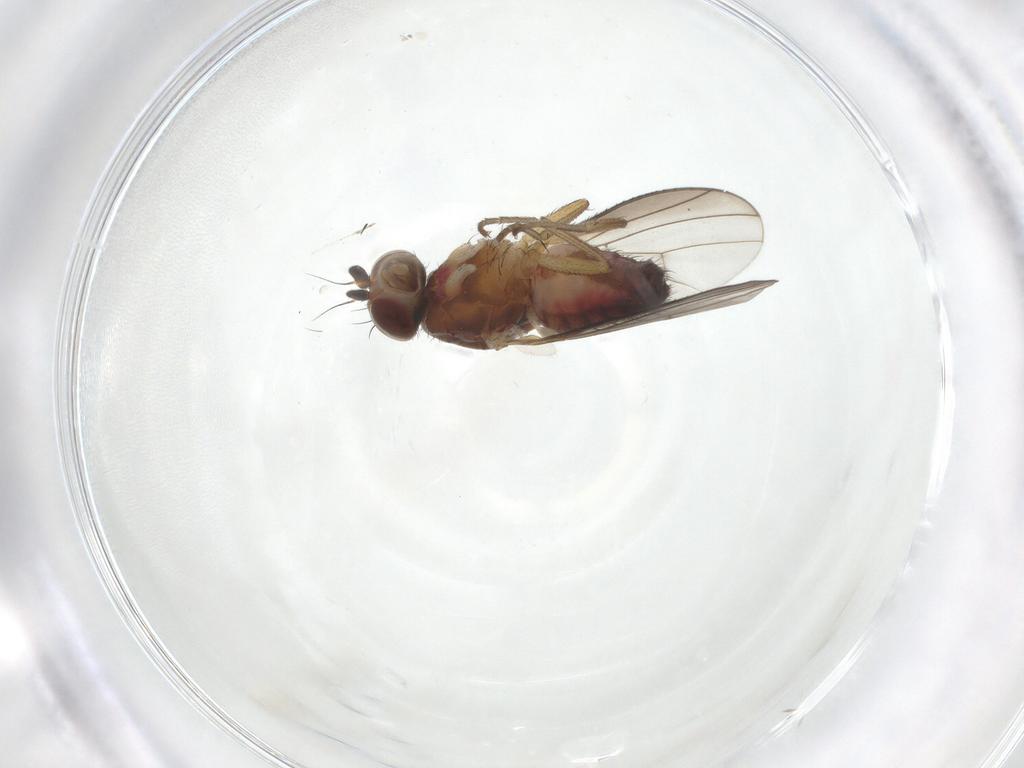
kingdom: Animalia
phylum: Arthropoda
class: Insecta
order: Diptera
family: Heleomyzidae
